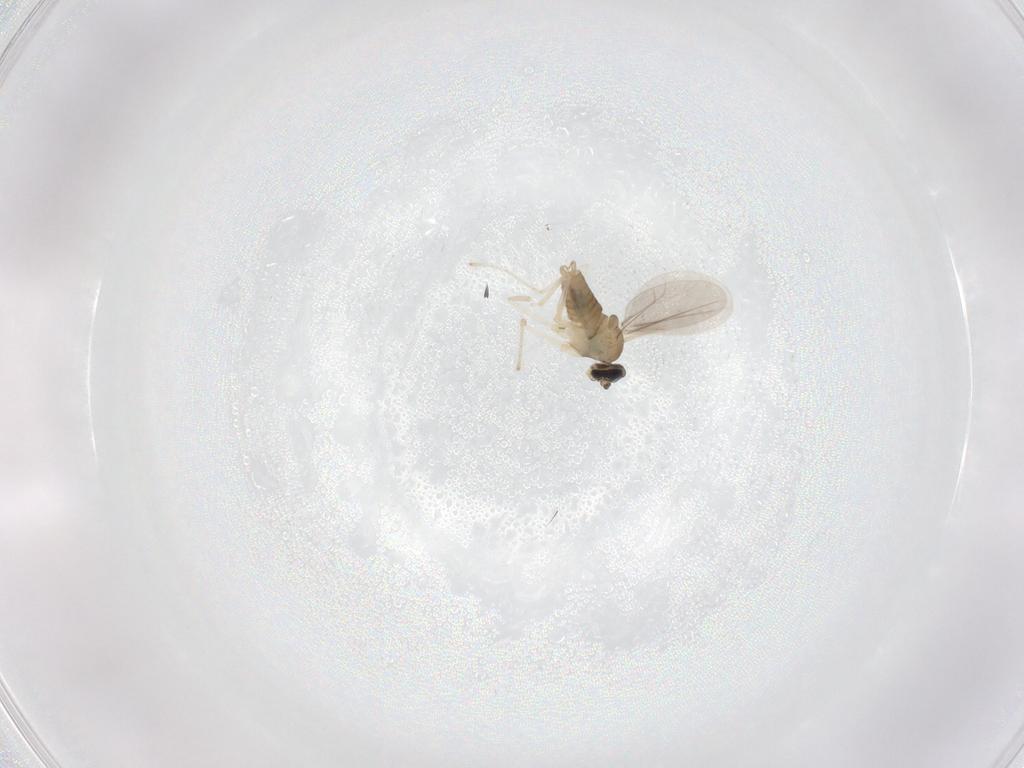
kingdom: Animalia
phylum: Arthropoda
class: Insecta
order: Diptera
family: Cecidomyiidae
